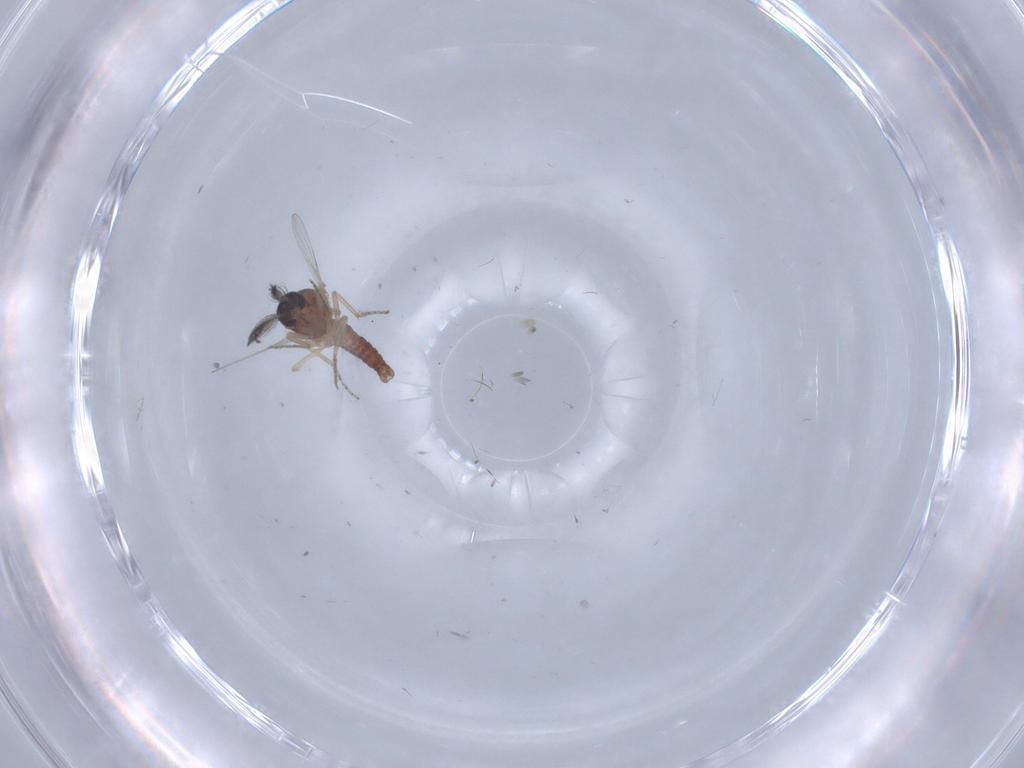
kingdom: Animalia
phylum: Arthropoda
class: Insecta
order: Diptera
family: Ceratopogonidae
